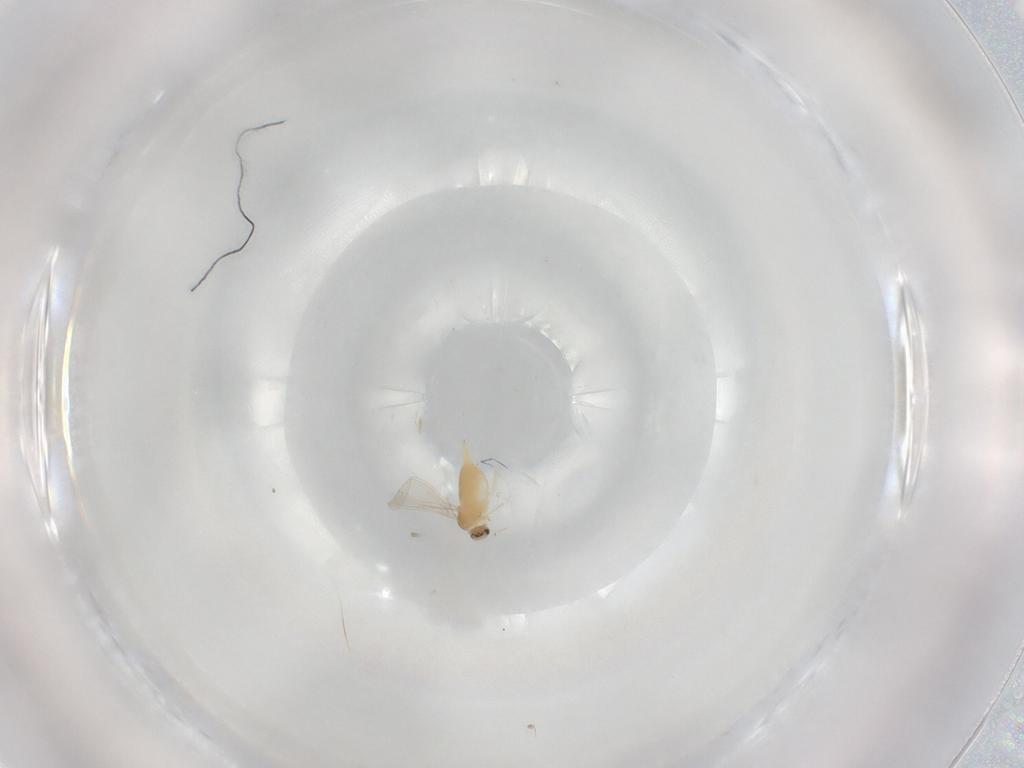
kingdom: Animalia
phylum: Arthropoda
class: Insecta
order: Diptera
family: Cecidomyiidae
